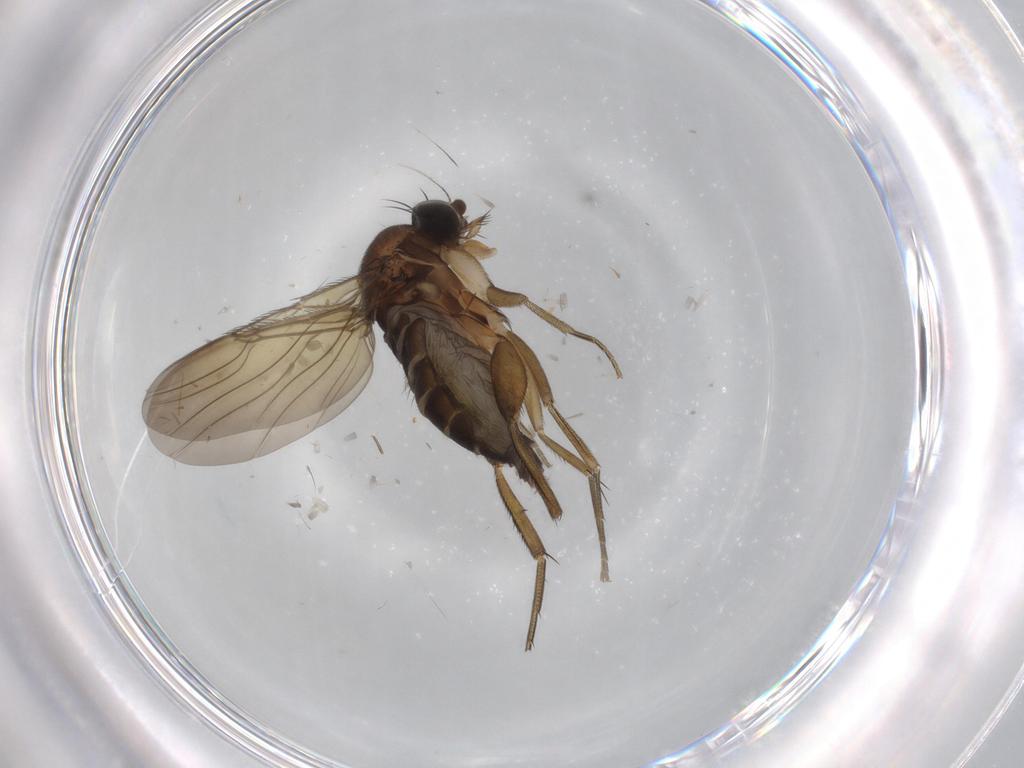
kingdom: Animalia
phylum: Arthropoda
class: Insecta
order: Diptera
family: Phoridae
